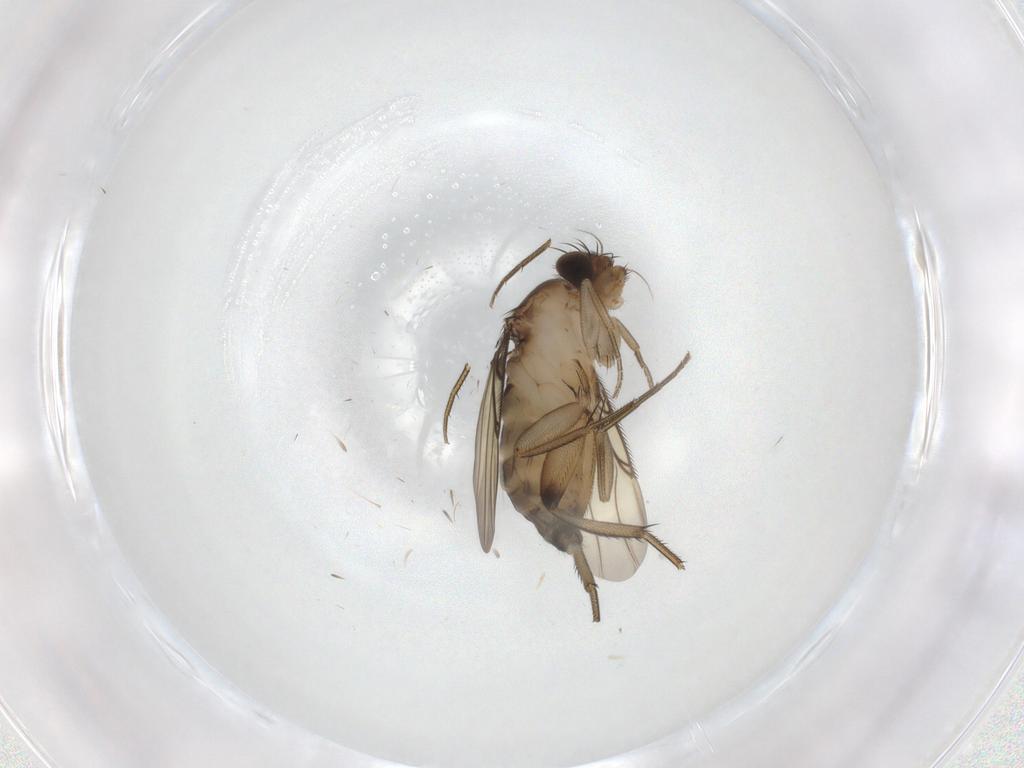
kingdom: Animalia
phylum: Arthropoda
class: Insecta
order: Diptera
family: Phoridae
